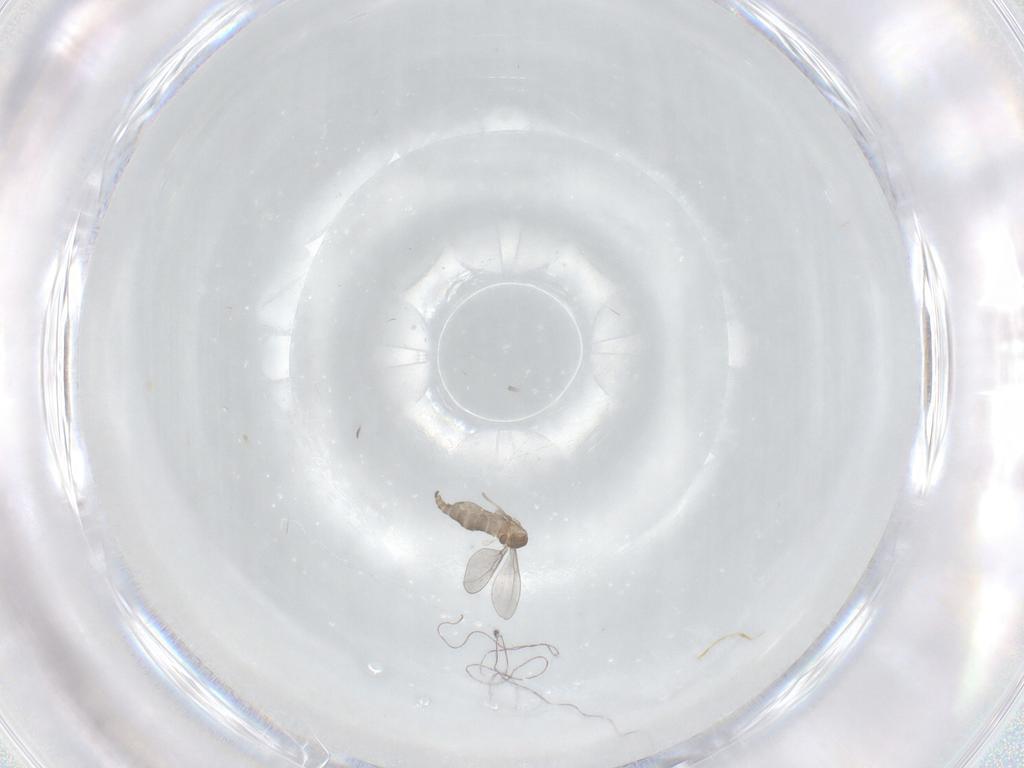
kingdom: Animalia
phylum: Arthropoda
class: Insecta
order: Diptera
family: Cecidomyiidae
